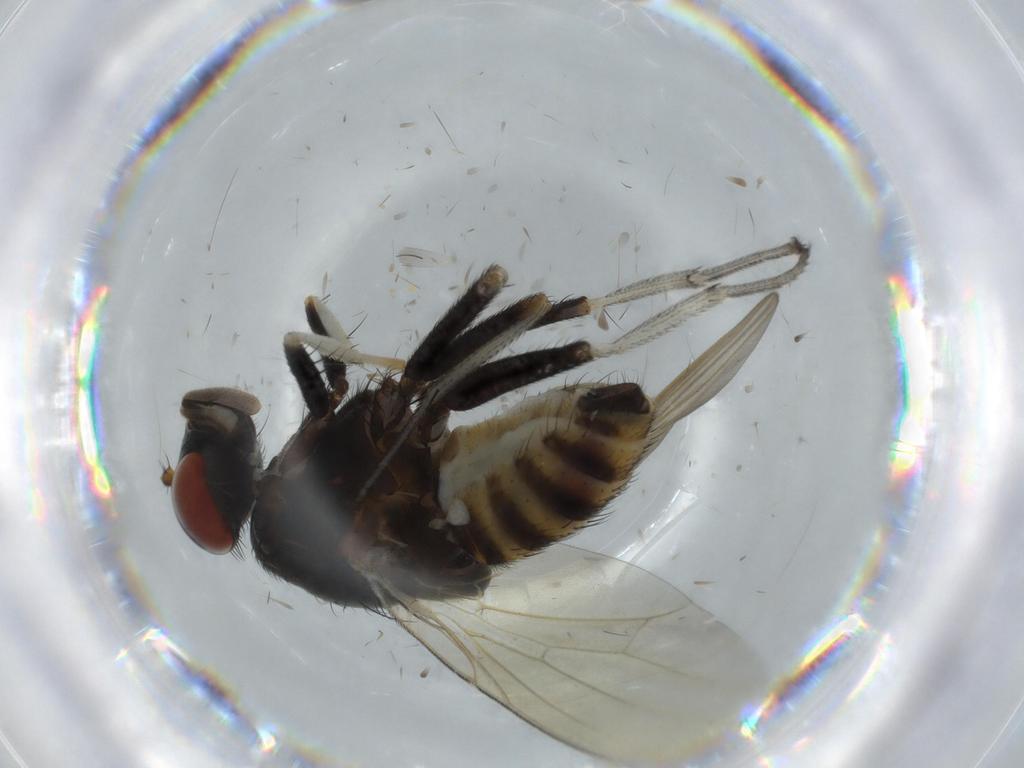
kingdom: Animalia
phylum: Arthropoda
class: Insecta
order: Diptera
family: Milichiidae
